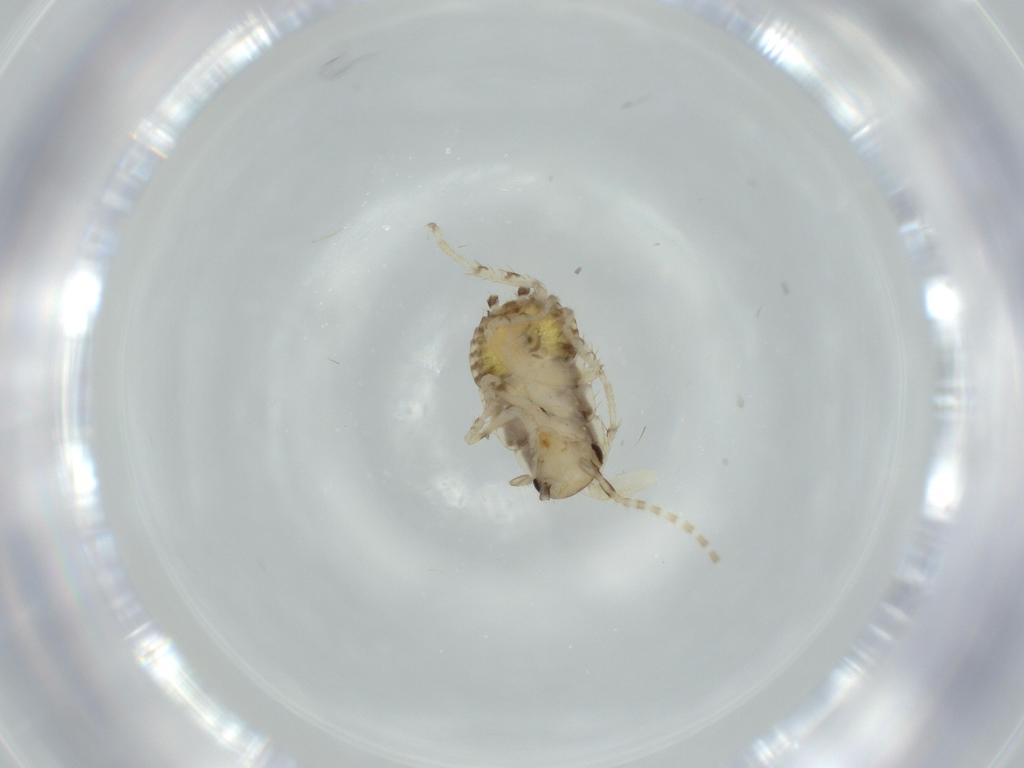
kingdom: Animalia
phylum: Arthropoda
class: Insecta
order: Blattodea
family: Ectobiidae
